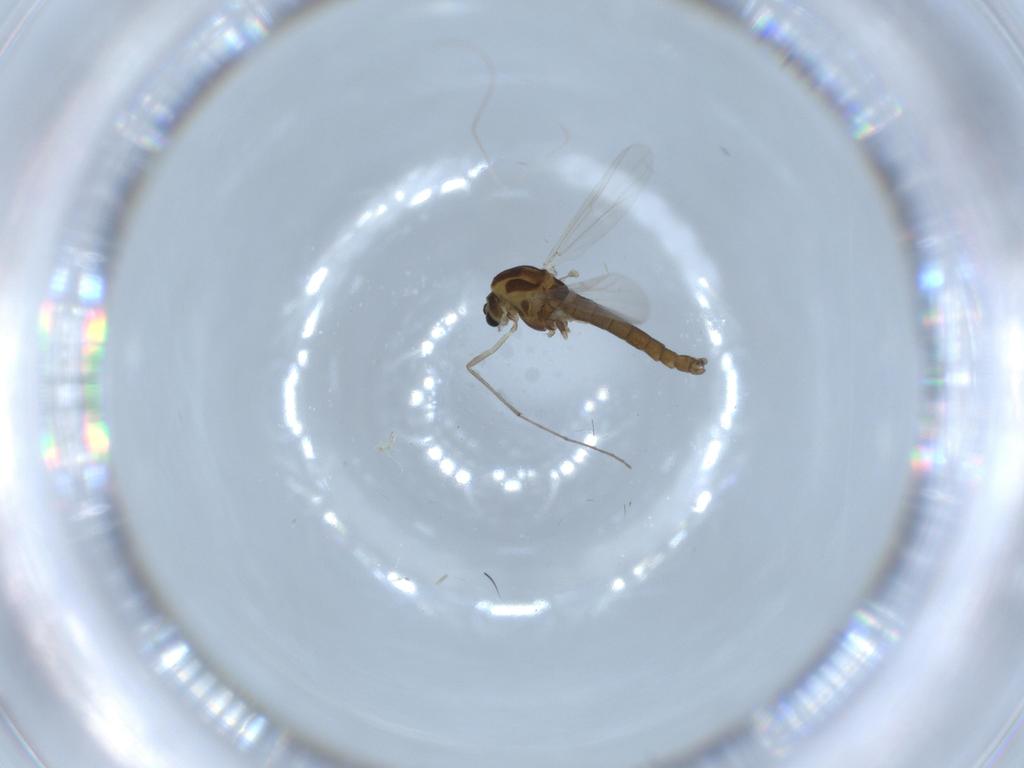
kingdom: Animalia
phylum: Arthropoda
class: Insecta
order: Diptera
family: Chironomidae
